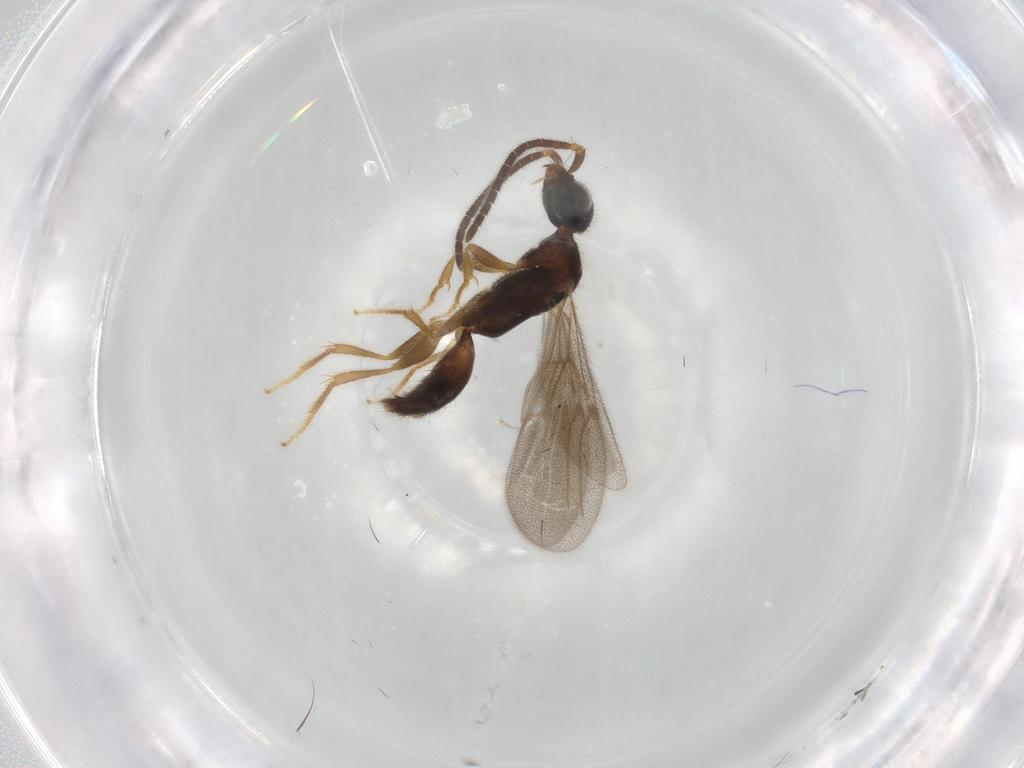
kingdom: Animalia
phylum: Arthropoda
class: Insecta
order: Hymenoptera
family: Bethylidae
